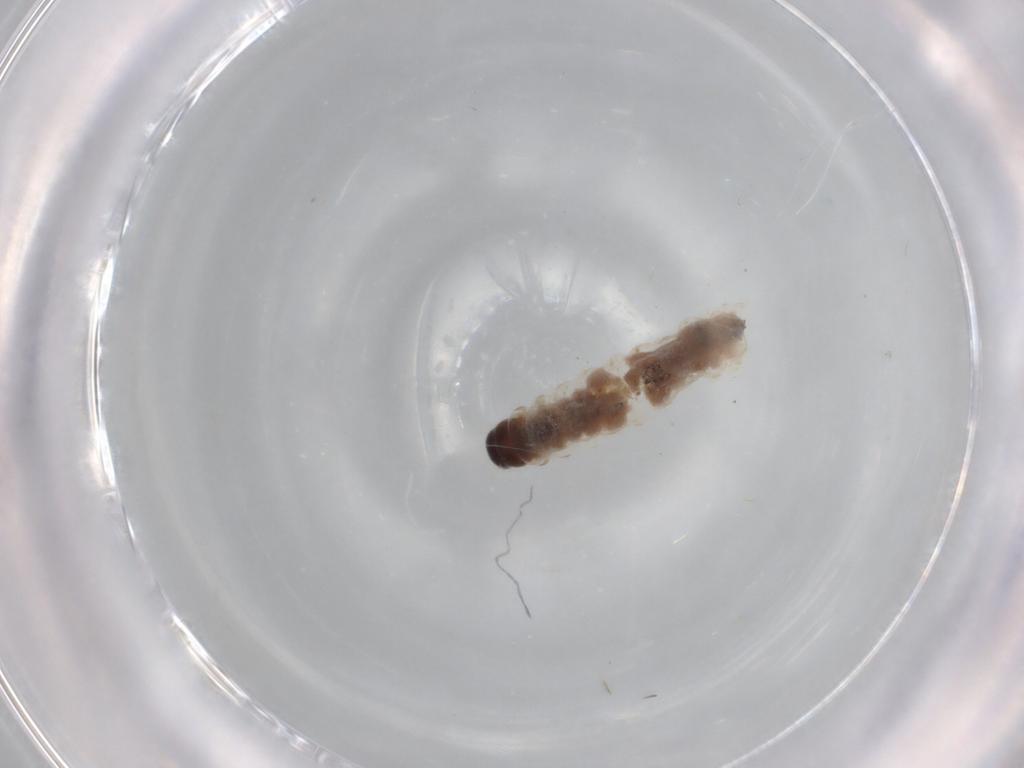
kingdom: Animalia
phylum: Arthropoda
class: Insecta
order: Lepidoptera
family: Psychidae
